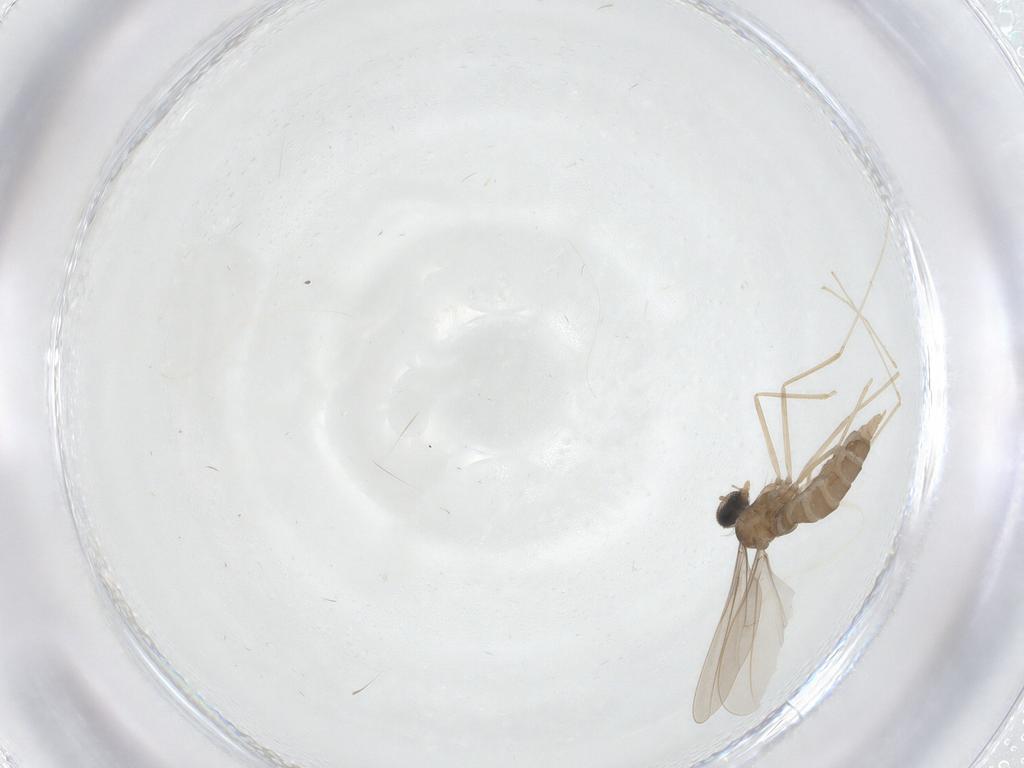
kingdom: Animalia
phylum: Arthropoda
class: Insecta
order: Diptera
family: Cecidomyiidae
